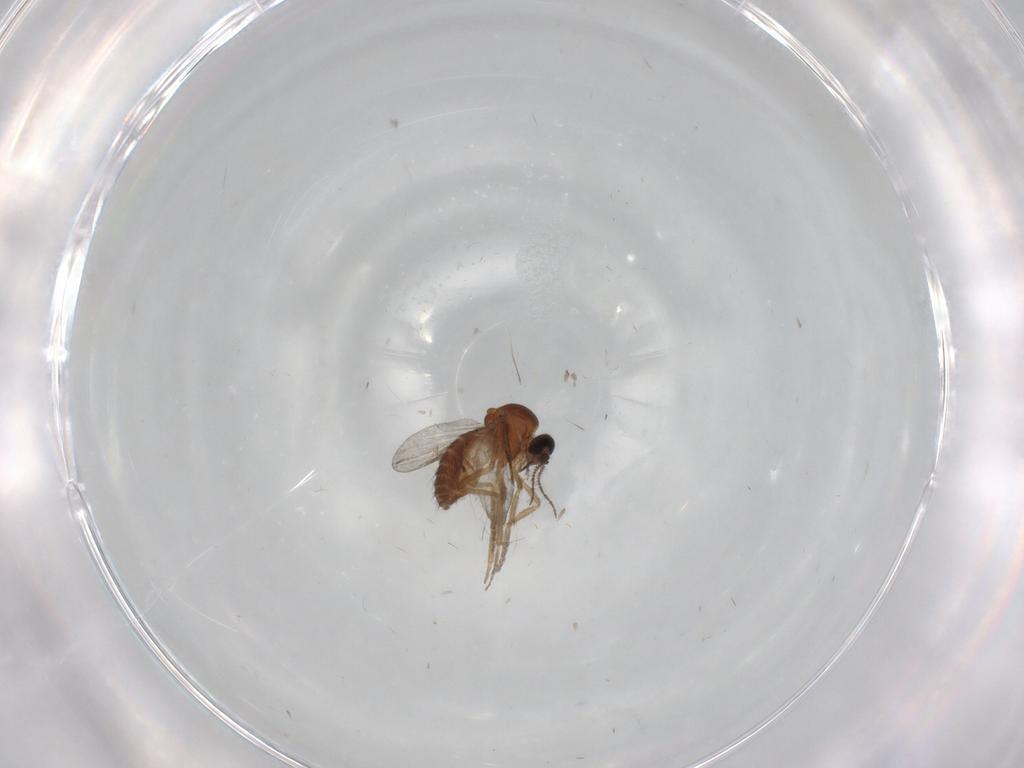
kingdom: Animalia
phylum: Arthropoda
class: Insecta
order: Diptera
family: Ceratopogonidae
